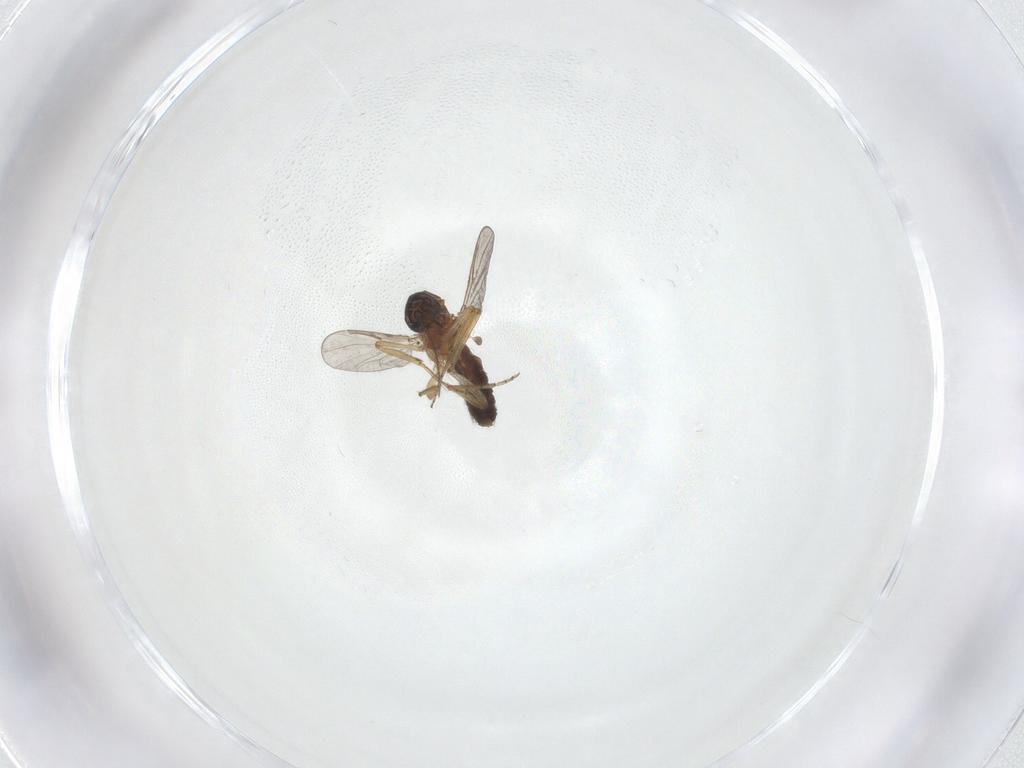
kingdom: Animalia
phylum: Arthropoda
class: Insecta
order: Diptera
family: Ceratopogonidae
